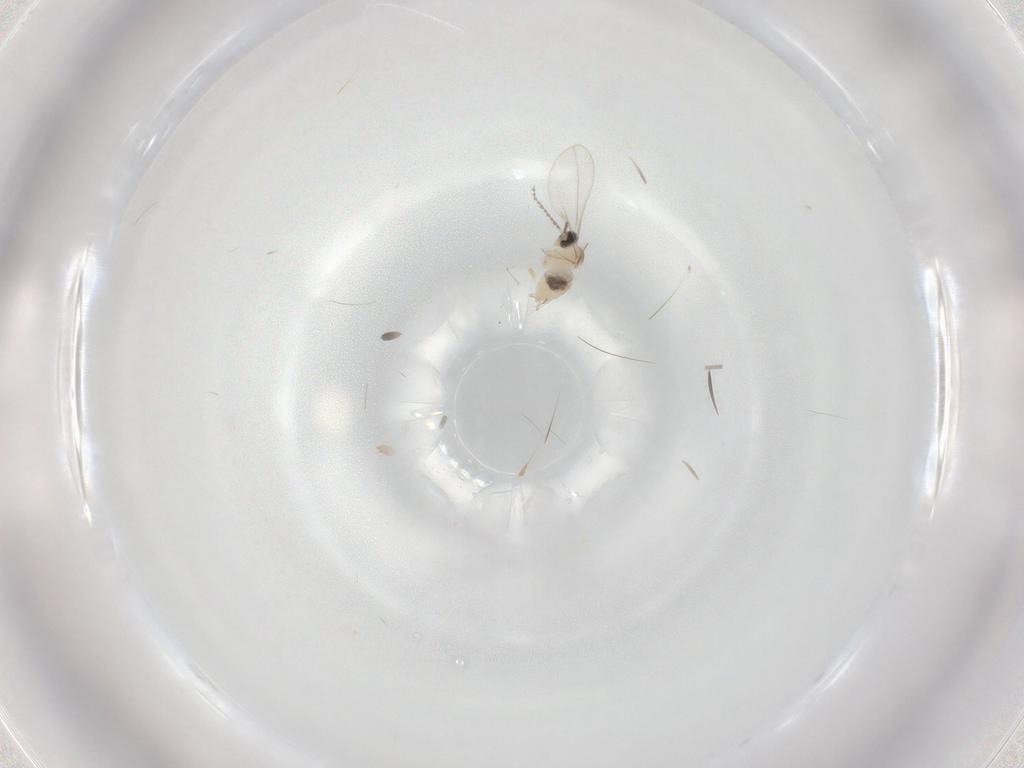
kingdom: Animalia
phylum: Arthropoda
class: Insecta
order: Diptera
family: Cecidomyiidae
